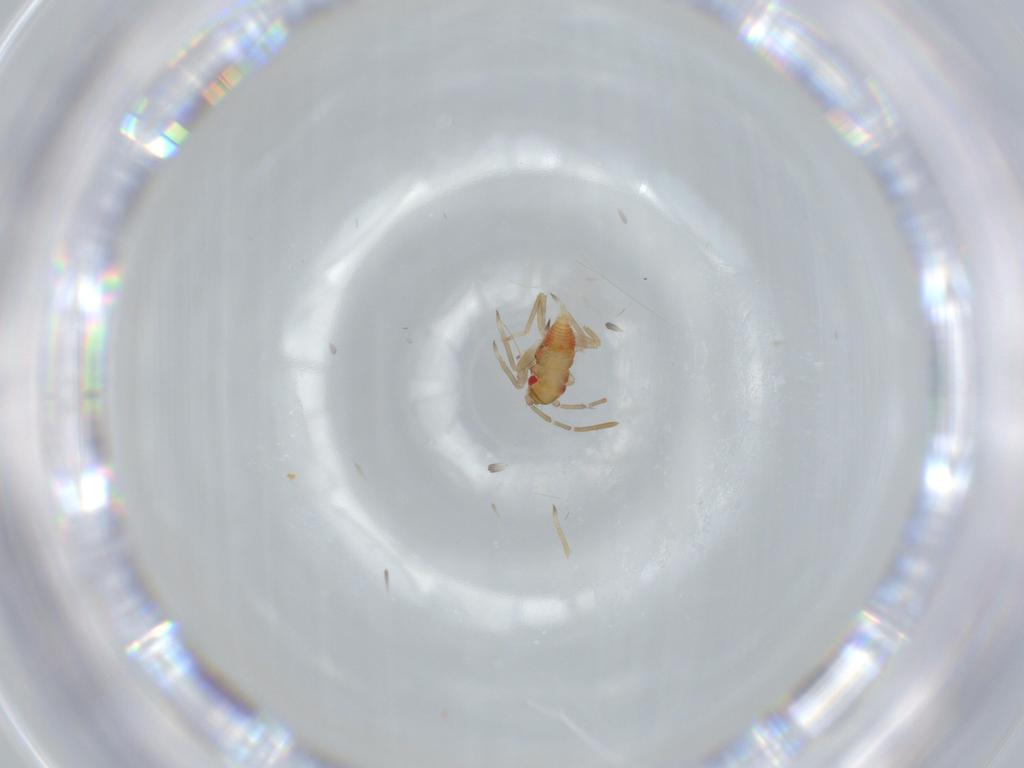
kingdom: Animalia
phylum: Arthropoda
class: Insecta
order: Hemiptera
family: Miridae
